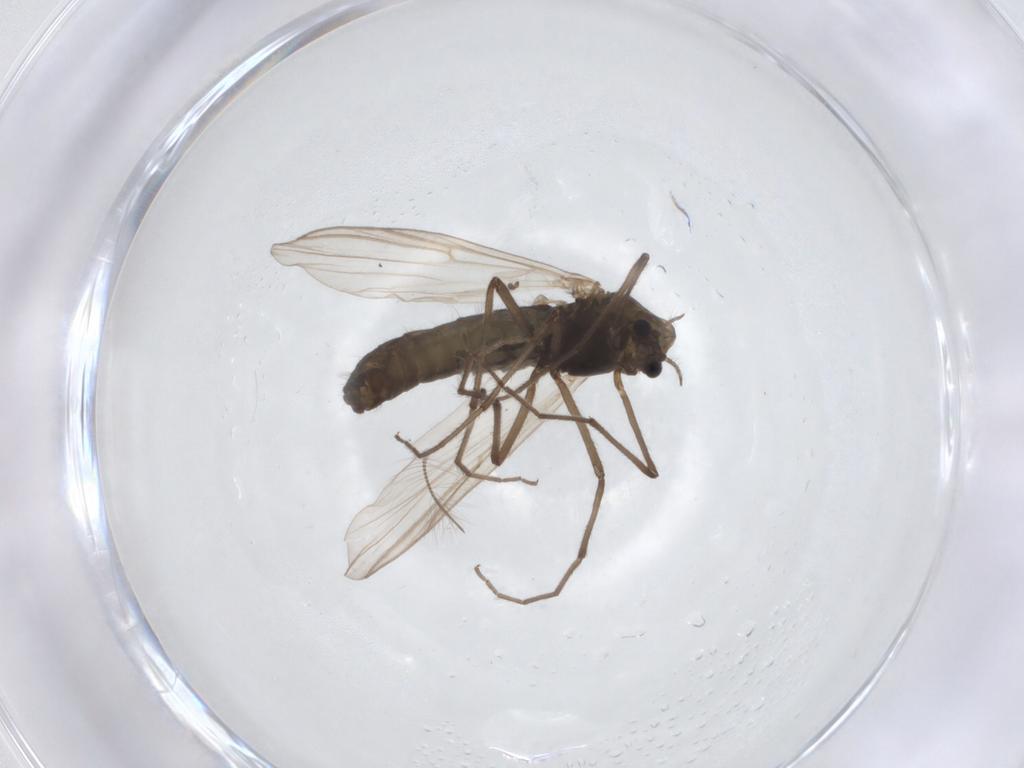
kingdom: Animalia
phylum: Arthropoda
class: Insecta
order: Diptera
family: Chironomidae
